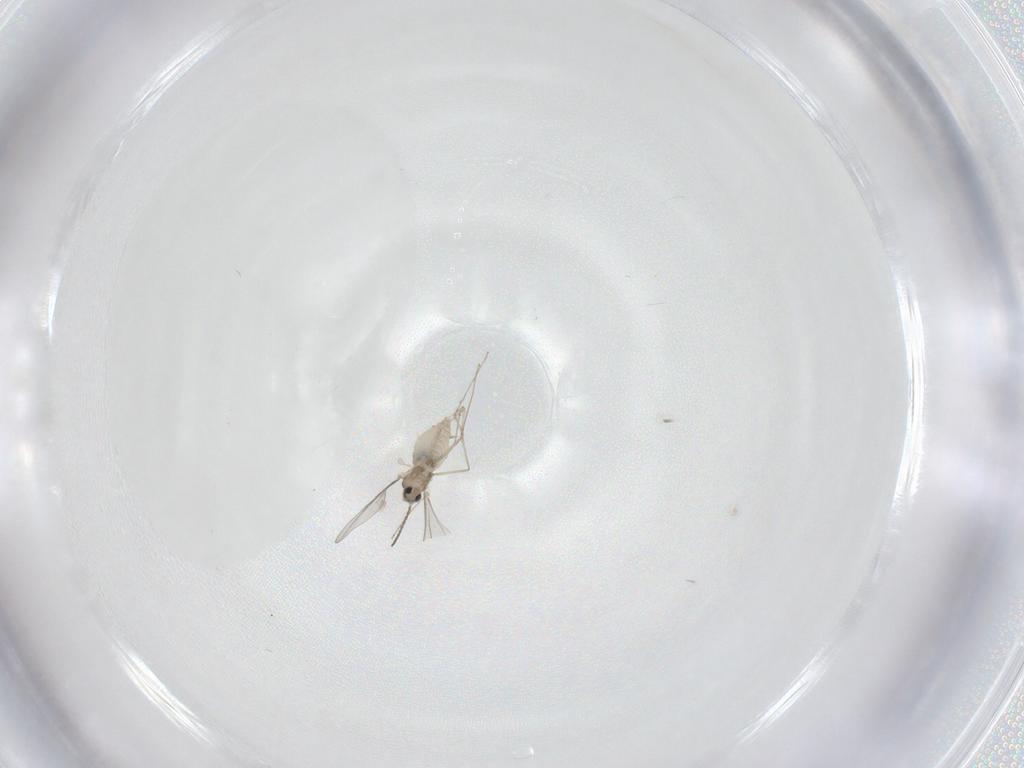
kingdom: Animalia
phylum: Arthropoda
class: Insecta
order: Diptera
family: Cecidomyiidae
